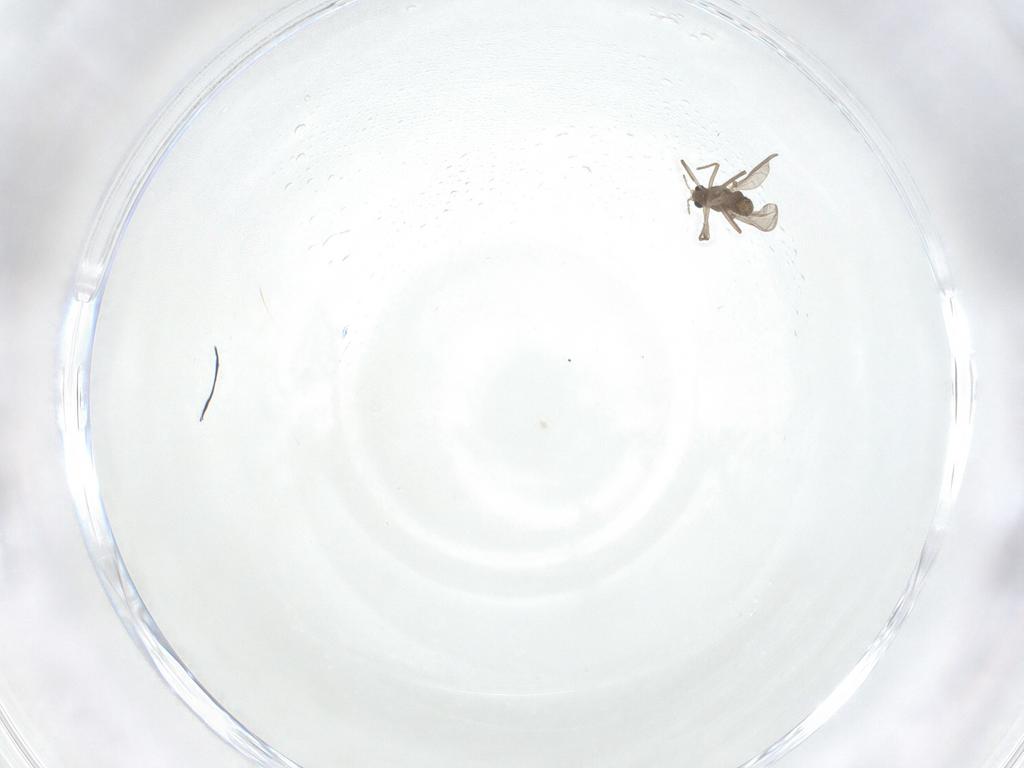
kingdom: Animalia
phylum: Arthropoda
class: Insecta
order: Diptera
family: Chironomidae
